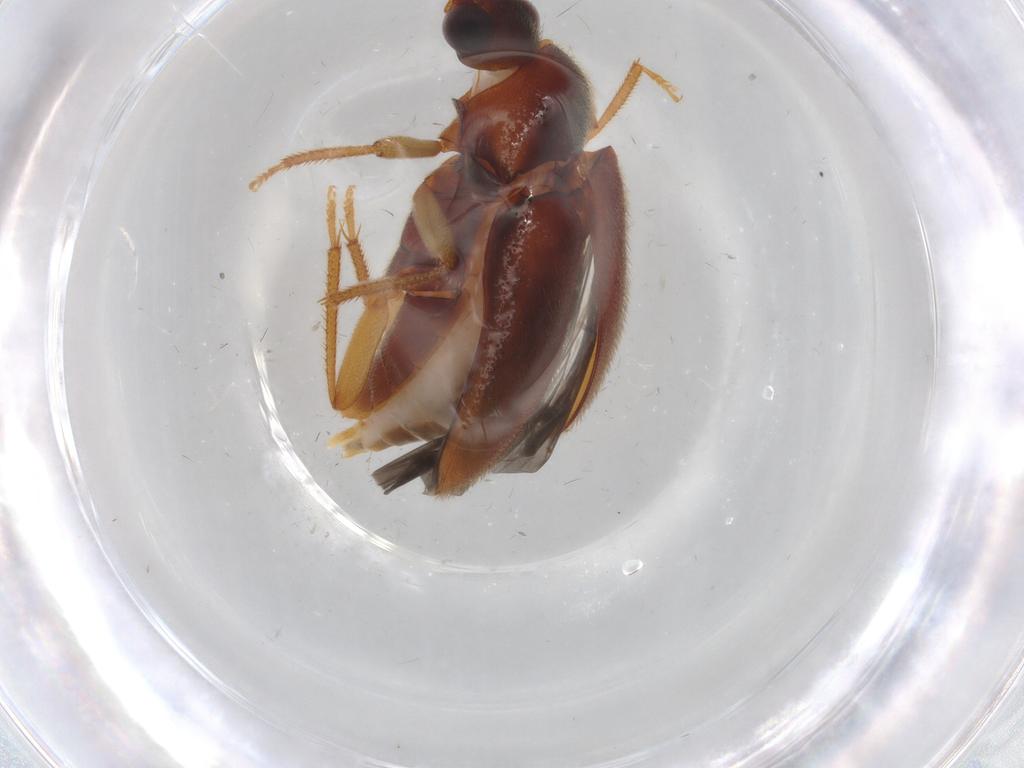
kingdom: Animalia
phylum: Arthropoda
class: Insecta
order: Coleoptera
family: Ptilodactylidae
